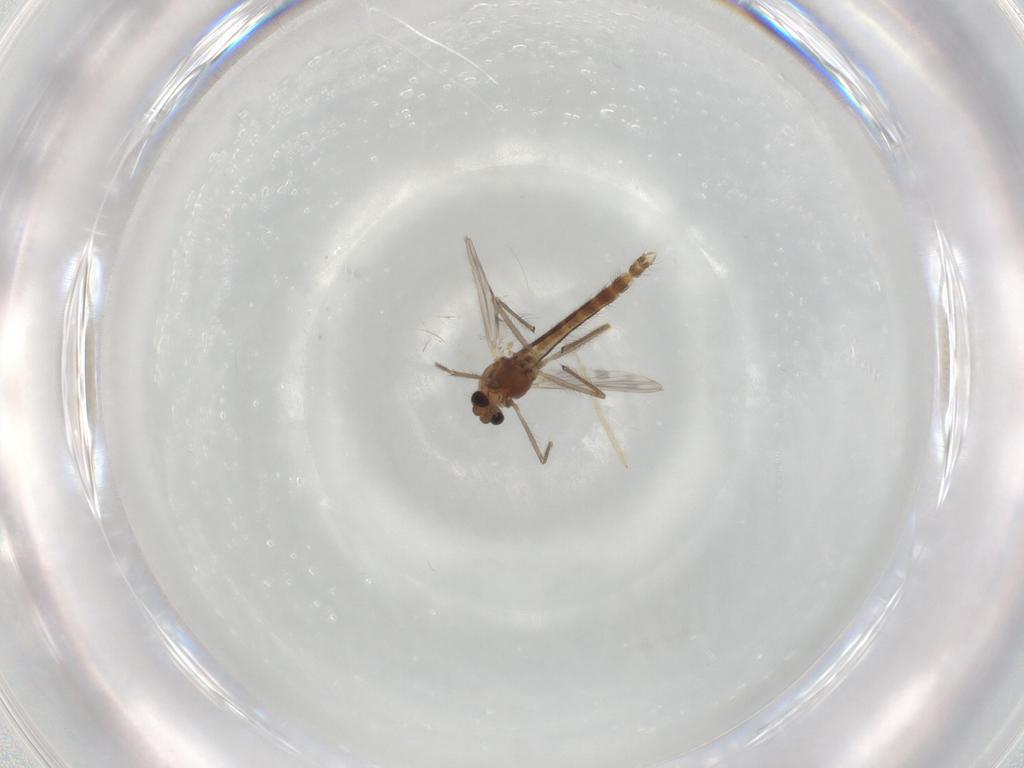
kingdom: Animalia
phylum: Arthropoda
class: Insecta
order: Diptera
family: Chironomidae
